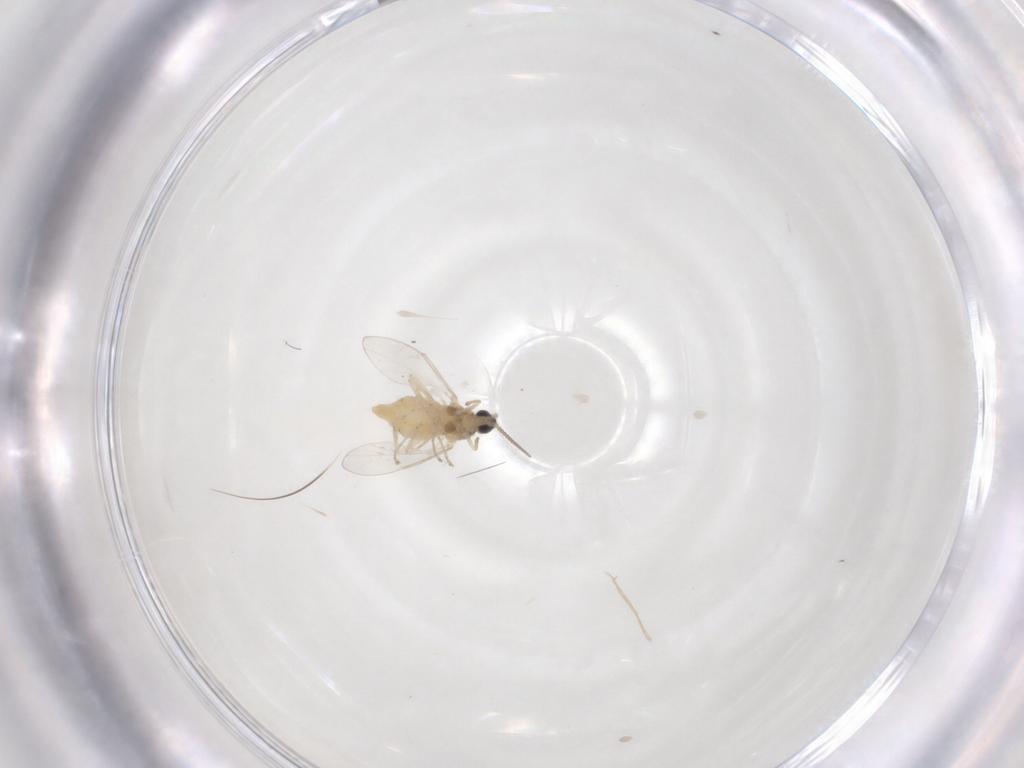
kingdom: Animalia
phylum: Arthropoda
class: Insecta
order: Diptera
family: Cecidomyiidae
